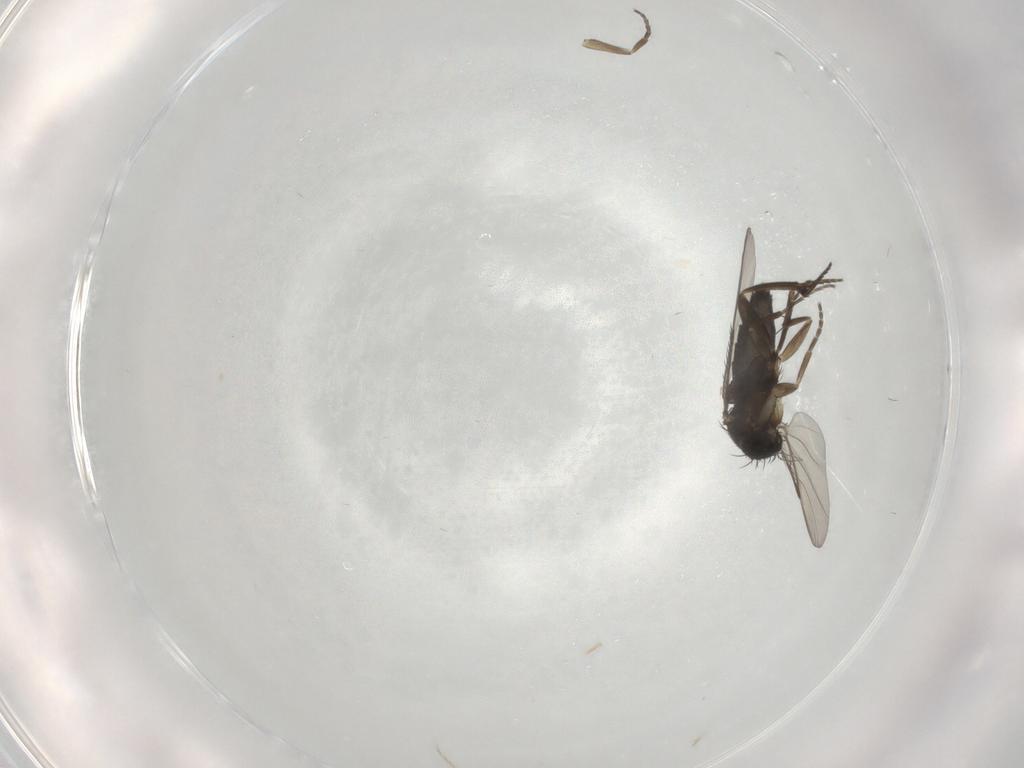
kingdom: Animalia
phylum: Arthropoda
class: Insecta
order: Diptera
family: Phoridae
